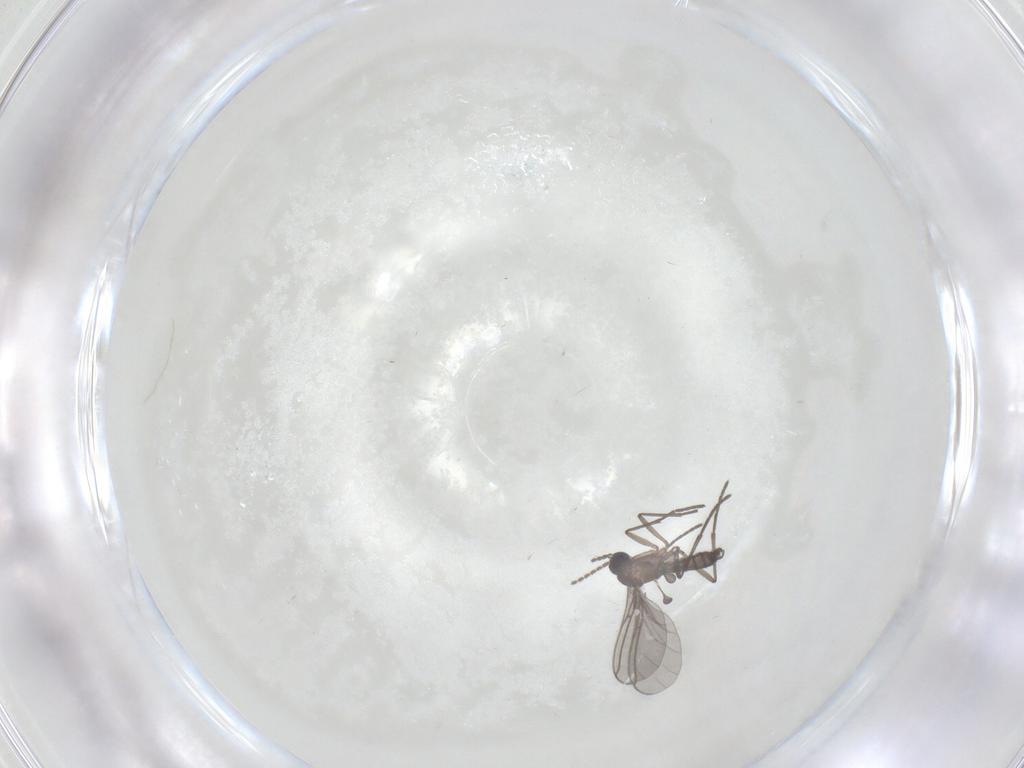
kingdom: Animalia
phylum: Arthropoda
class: Insecta
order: Diptera
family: Sciaridae
